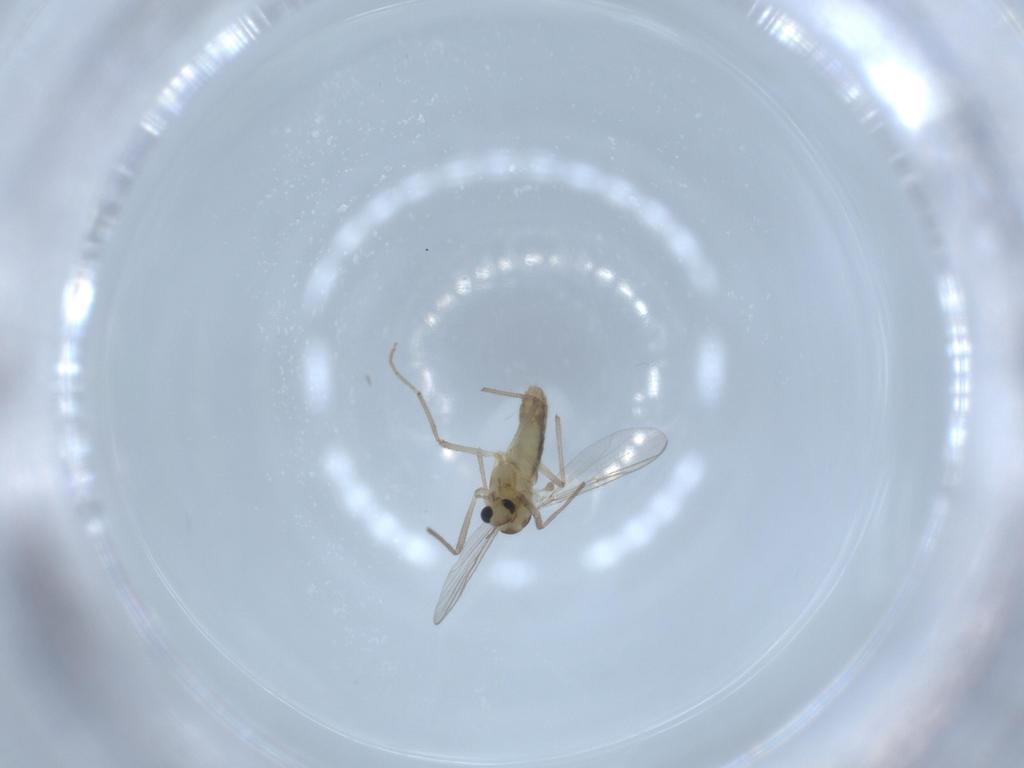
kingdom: Animalia
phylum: Arthropoda
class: Insecta
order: Diptera
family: Chironomidae
